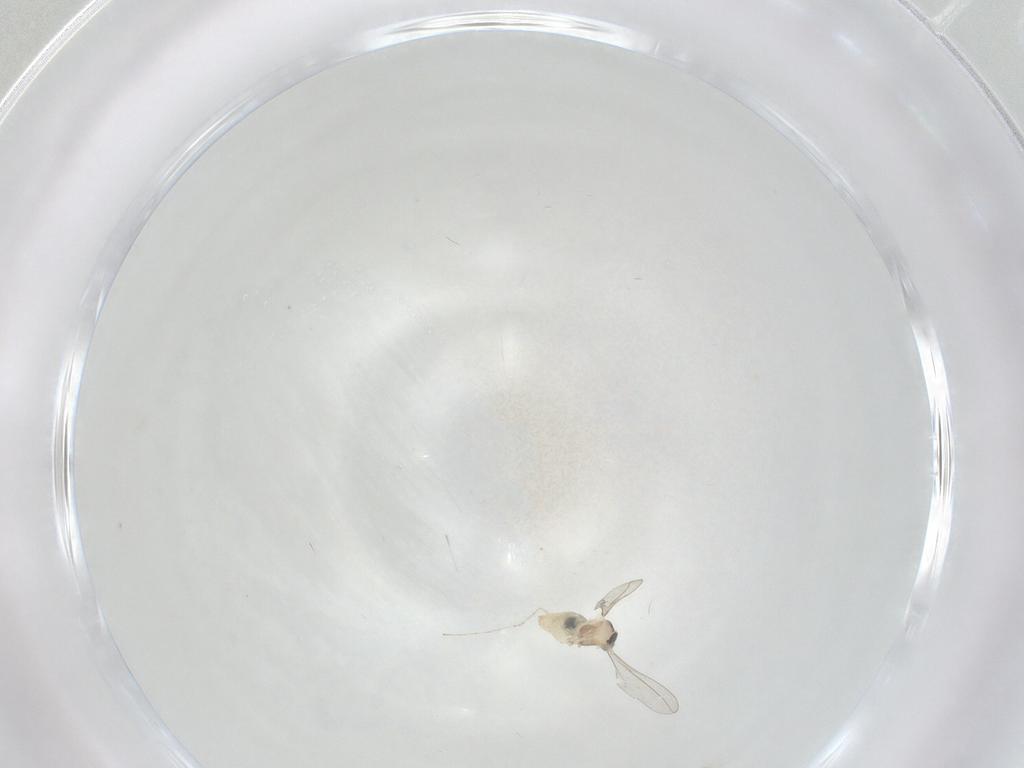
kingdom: Animalia
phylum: Arthropoda
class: Insecta
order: Diptera
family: Cecidomyiidae
